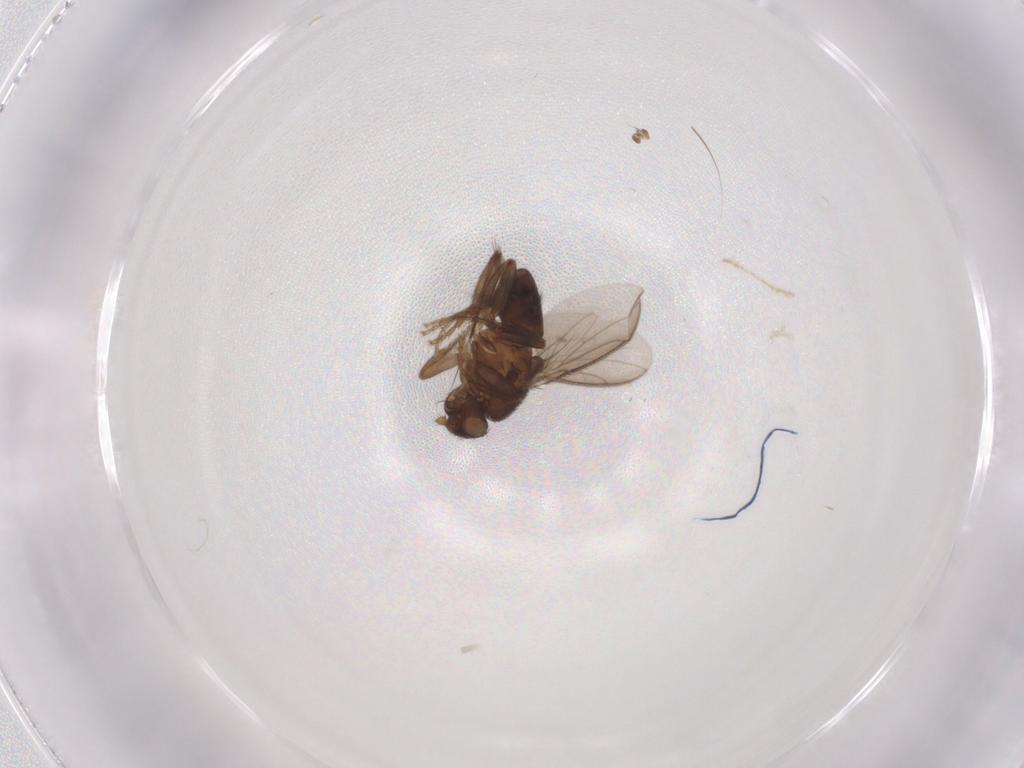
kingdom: Animalia
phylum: Arthropoda
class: Insecta
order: Diptera
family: Sphaeroceridae
